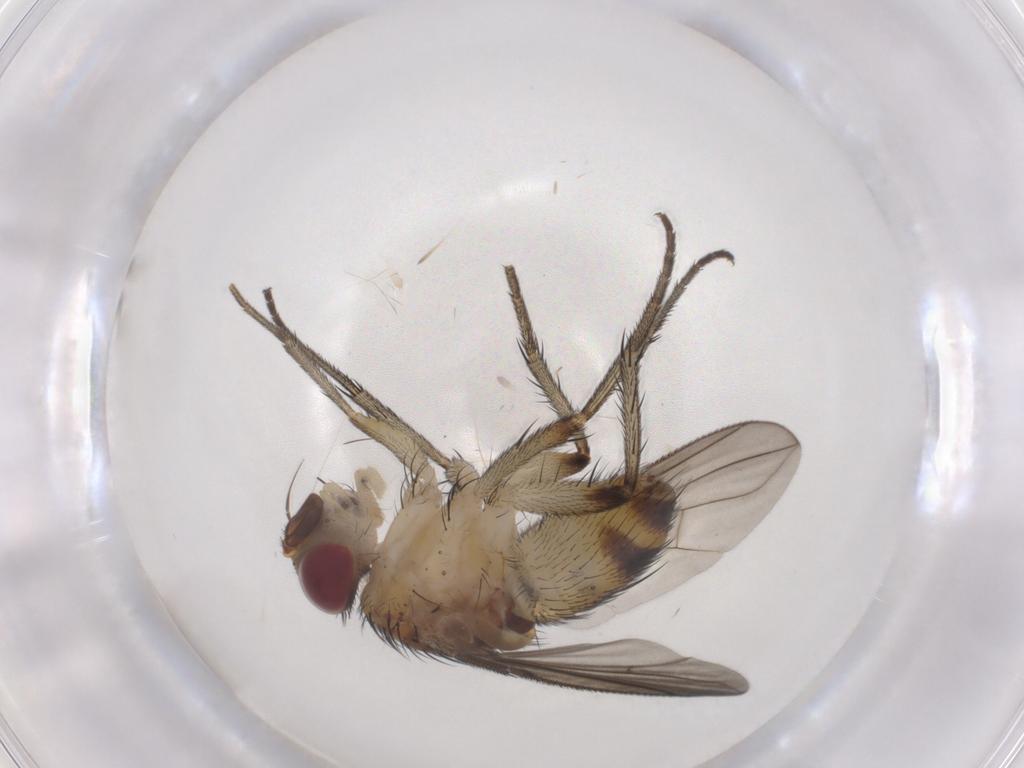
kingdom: Animalia
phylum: Arthropoda
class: Insecta
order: Diptera
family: Tachinidae
